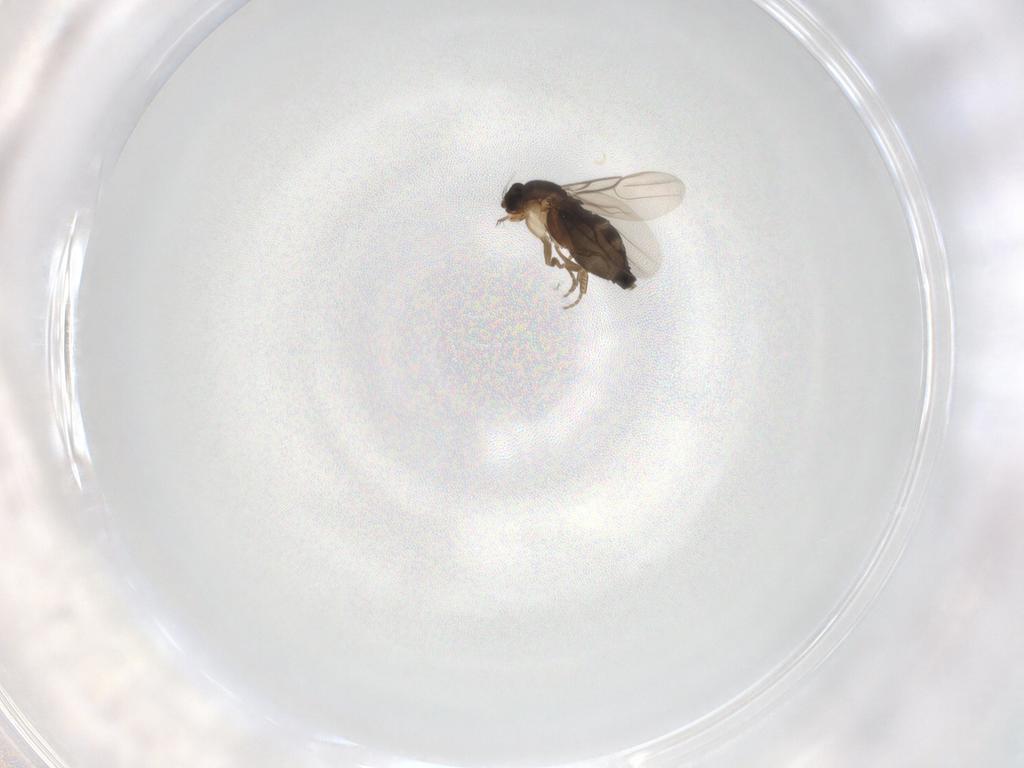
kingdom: Animalia
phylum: Arthropoda
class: Insecta
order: Diptera
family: Phoridae
